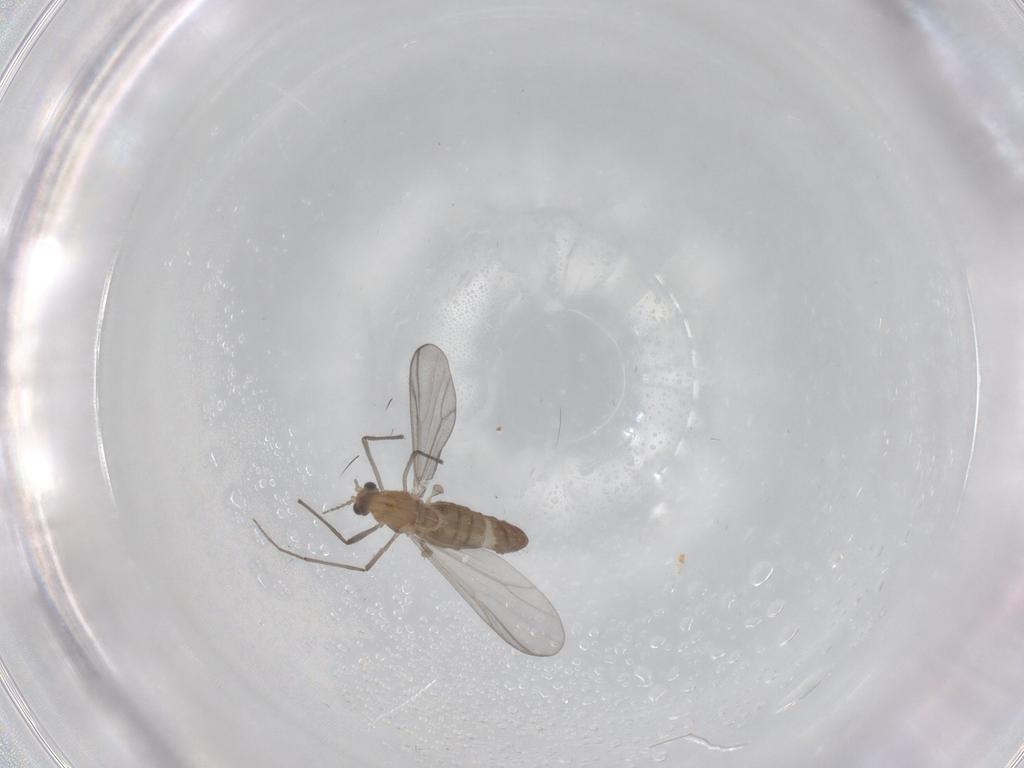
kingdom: Animalia
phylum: Arthropoda
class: Insecta
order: Diptera
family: Chironomidae
